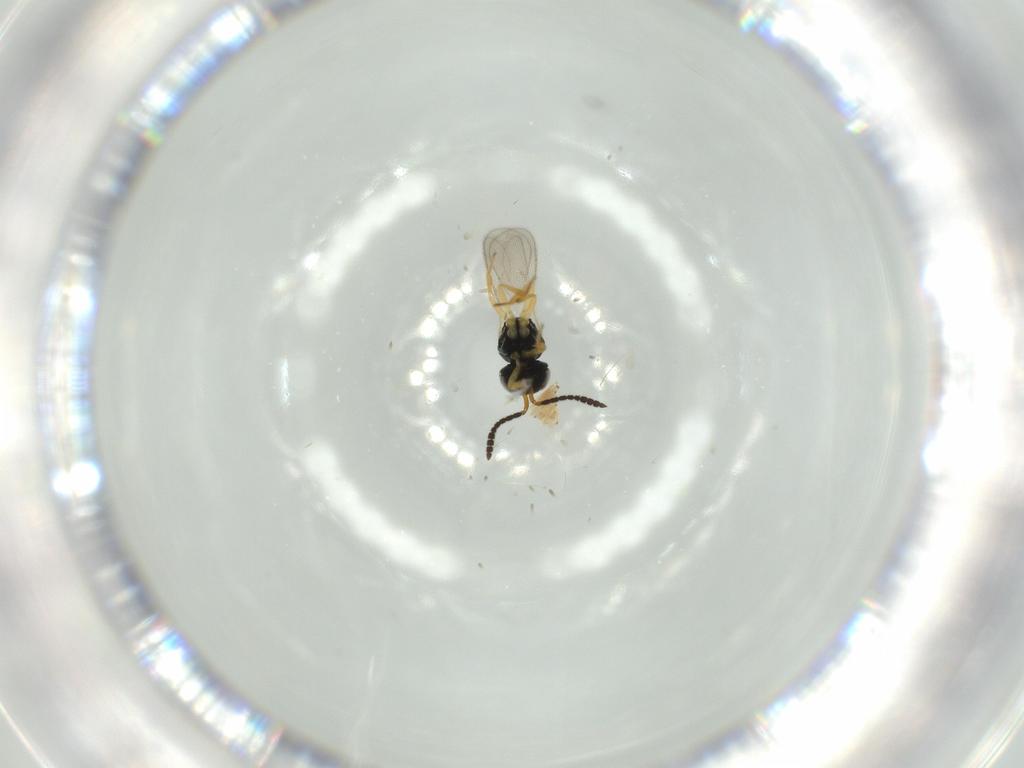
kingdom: Animalia
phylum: Arthropoda
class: Insecta
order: Hymenoptera
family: Scelionidae
